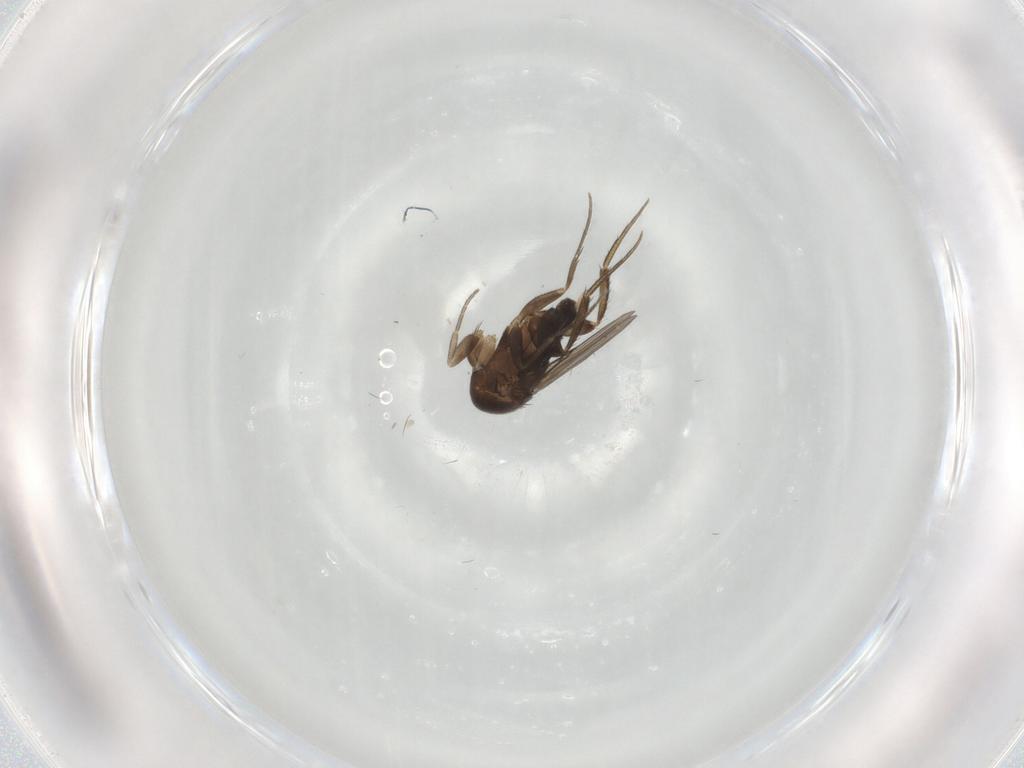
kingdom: Animalia
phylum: Arthropoda
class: Insecta
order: Diptera
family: Phoridae
